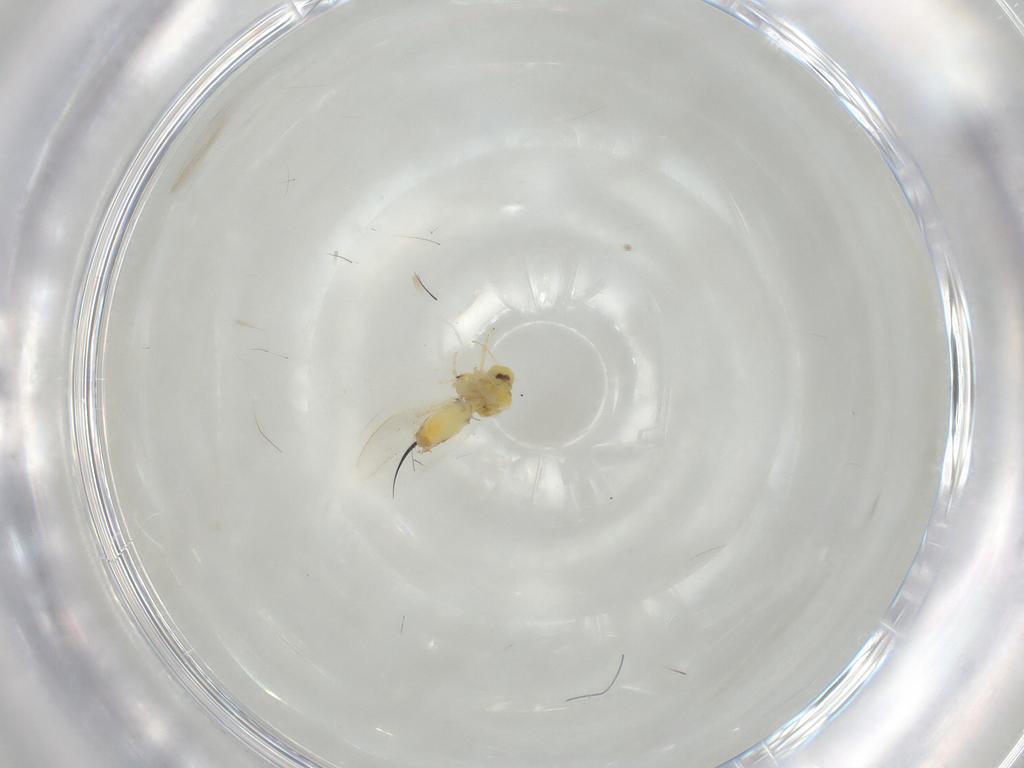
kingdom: Animalia
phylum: Arthropoda
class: Insecta
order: Hemiptera
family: Aleyrodidae
